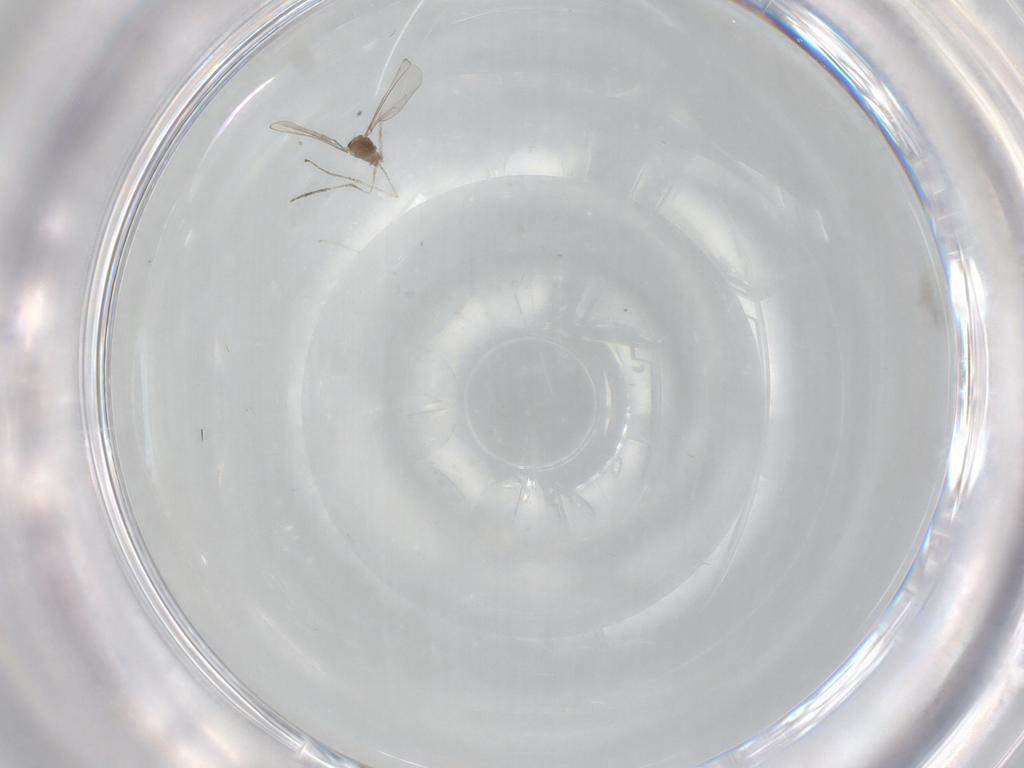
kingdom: Animalia
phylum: Arthropoda
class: Insecta
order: Diptera
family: Cecidomyiidae
